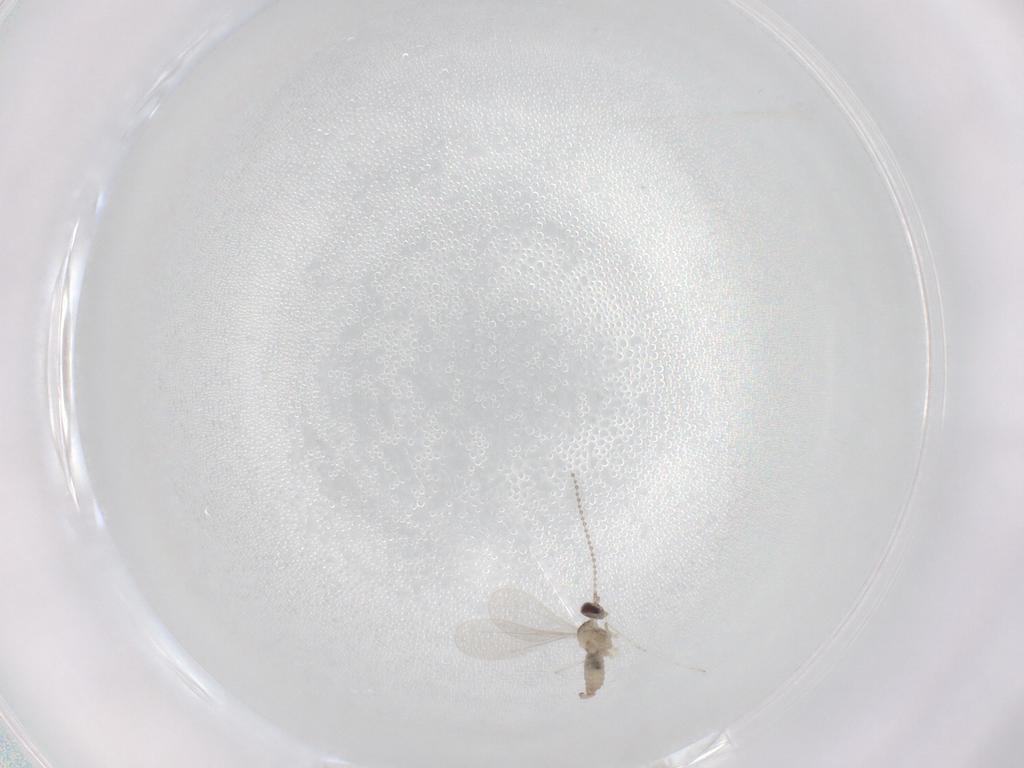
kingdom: Animalia
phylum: Arthropoda
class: Insecta
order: Diptera
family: Cecidomyiidae
